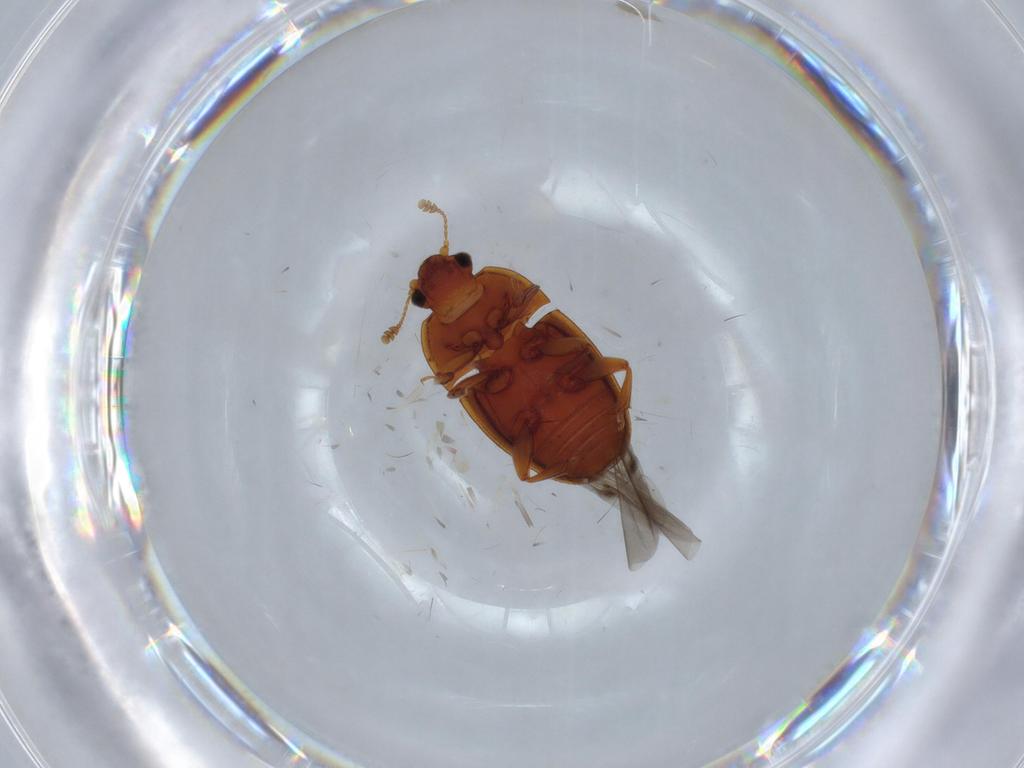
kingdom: Animalia
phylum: Arthropoda
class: Insecta
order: Coleoptera
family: Nitidulidae
